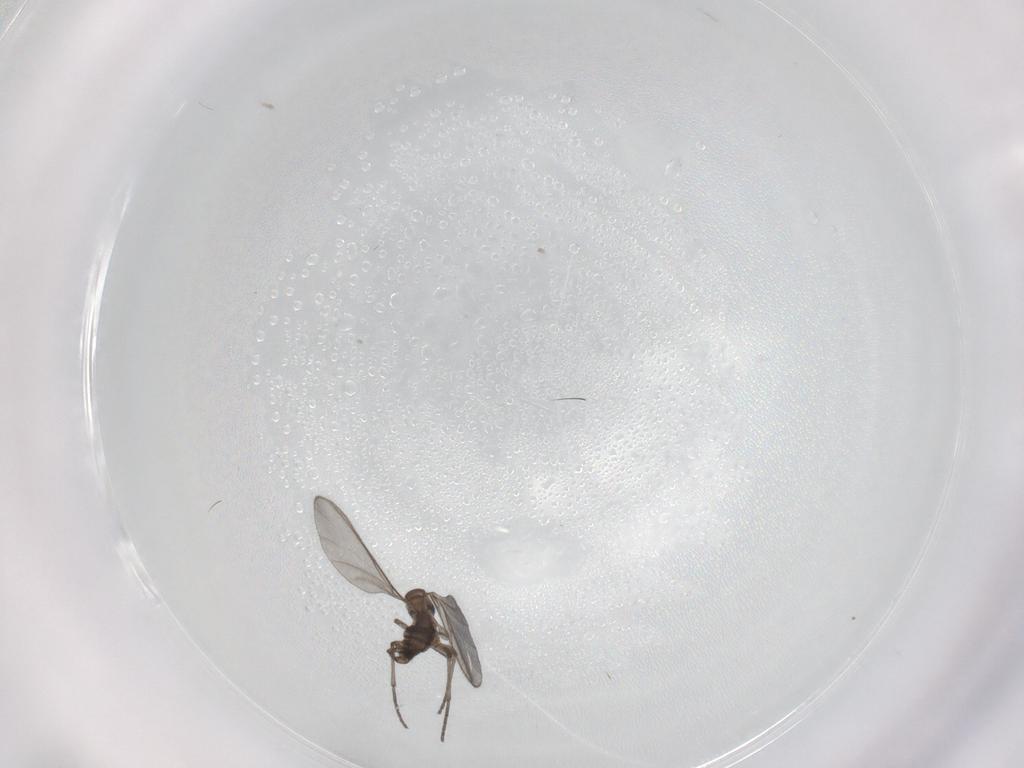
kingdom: Animalia
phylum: Arthropoda
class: Insecta
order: Diptera
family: Sciaridae
